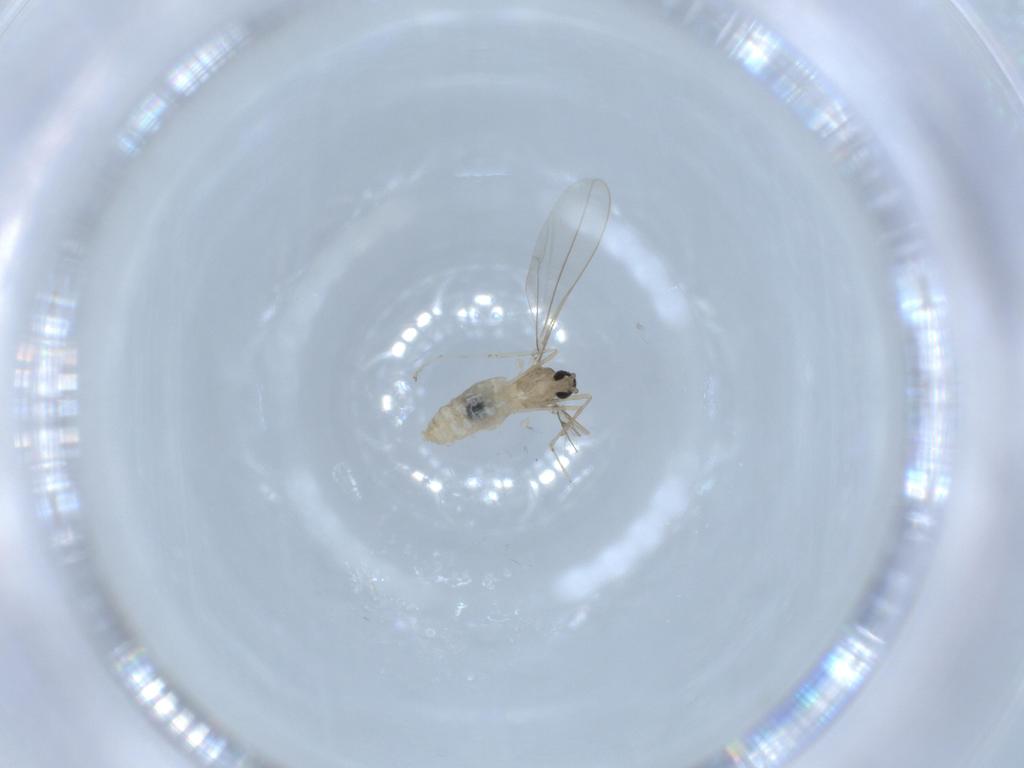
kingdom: Animalia
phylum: Arthropoda
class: Insecta
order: Diptera
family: Cecidomyiidae
